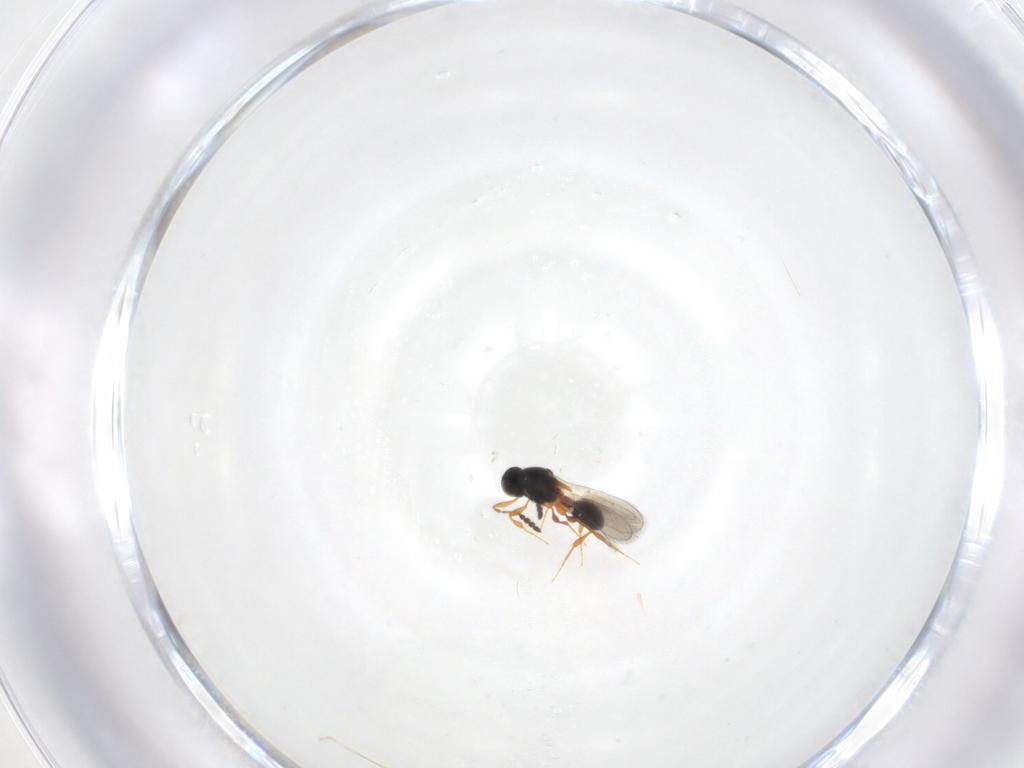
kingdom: Animalia
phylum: Arthropoda
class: Insecta
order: Hymenoptera
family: Platygastridae
